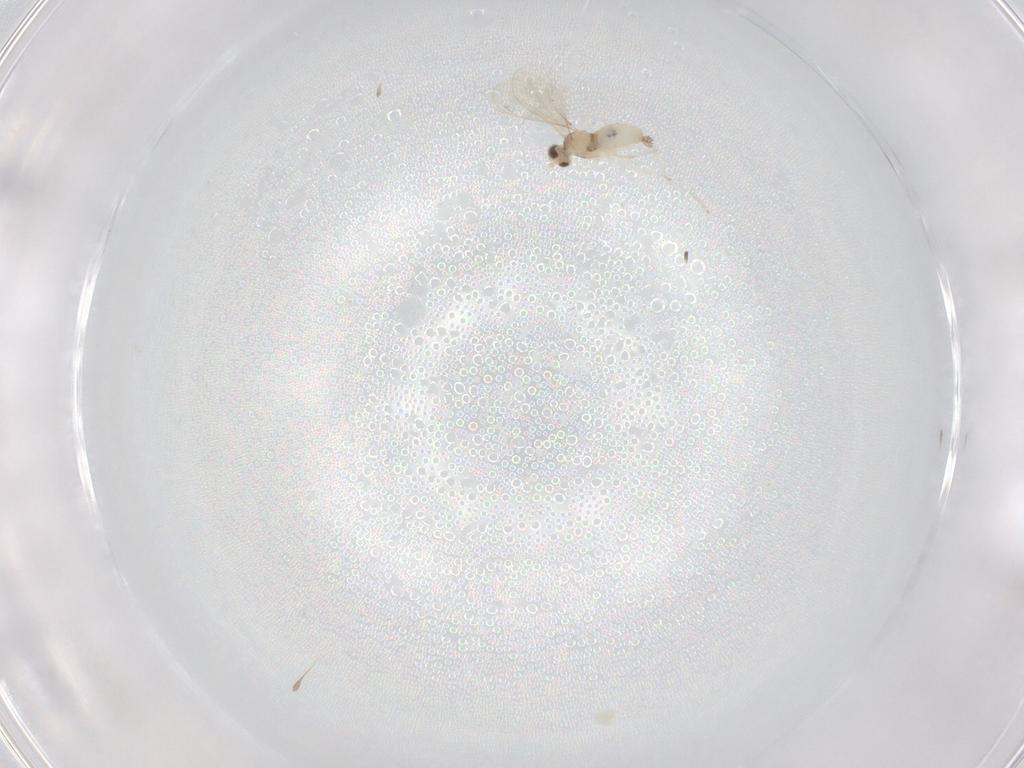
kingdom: Animalia
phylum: Arthropoda
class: Insecta
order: Diptera
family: Cecidomyiidae
